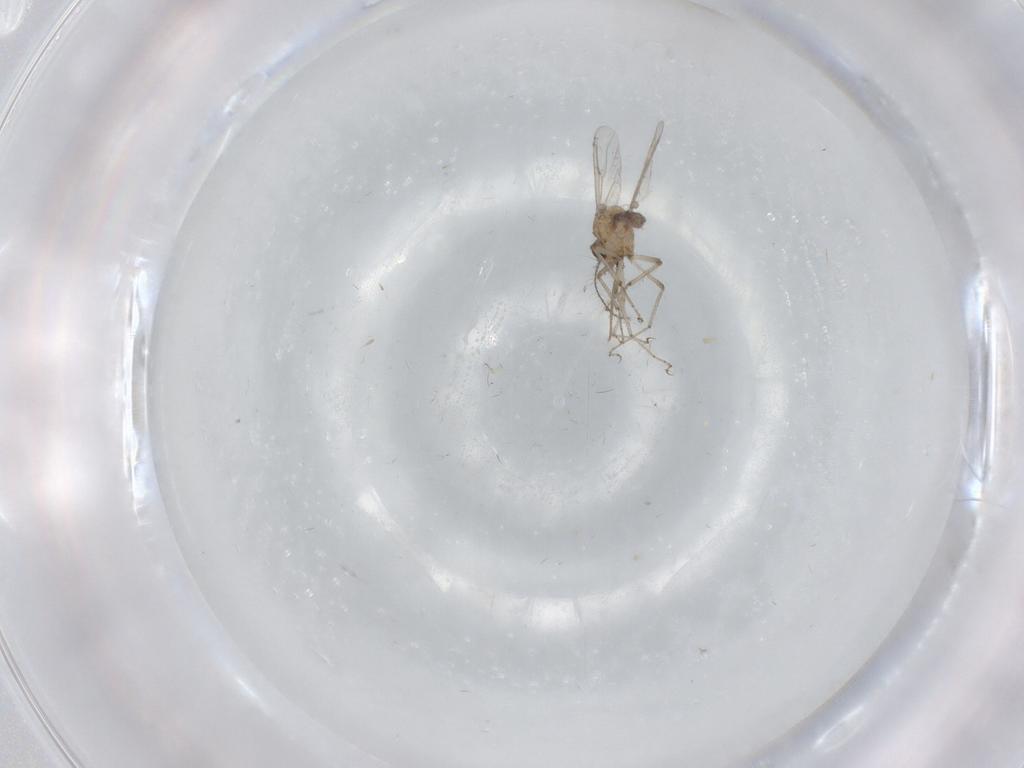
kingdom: Animalia
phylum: Arthropoda
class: Insecta
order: Diptera
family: Chironomidae
